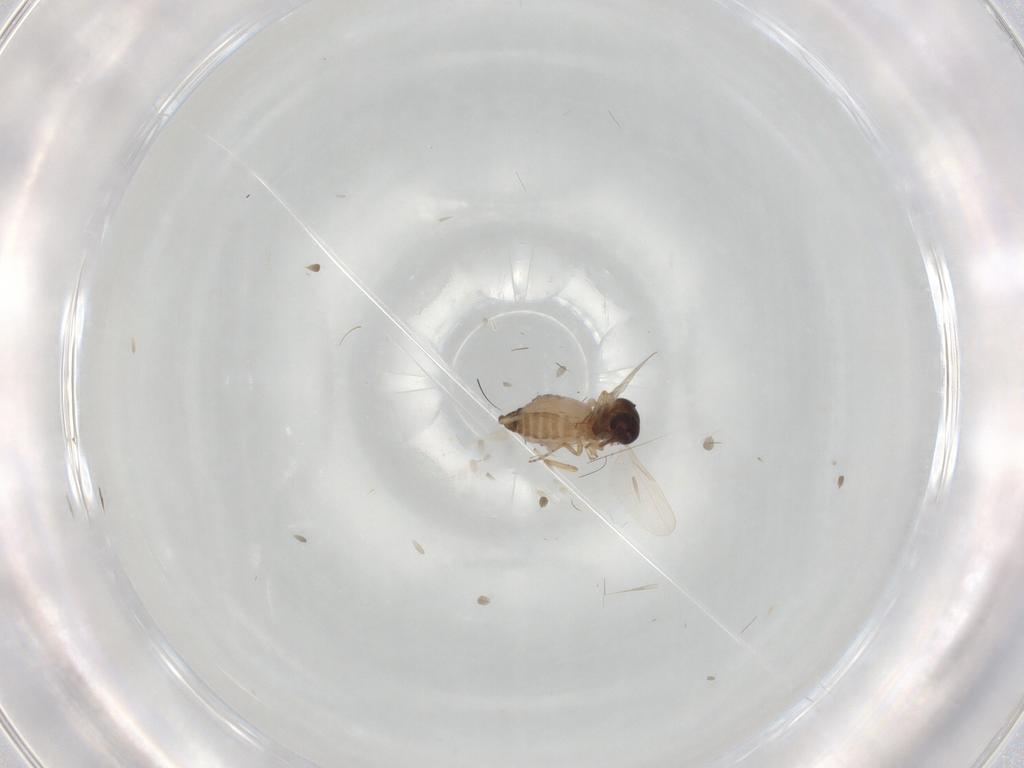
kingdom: Animalia
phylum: Arthropoda
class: Insecta
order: Diptera
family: Ceratopogonidae
